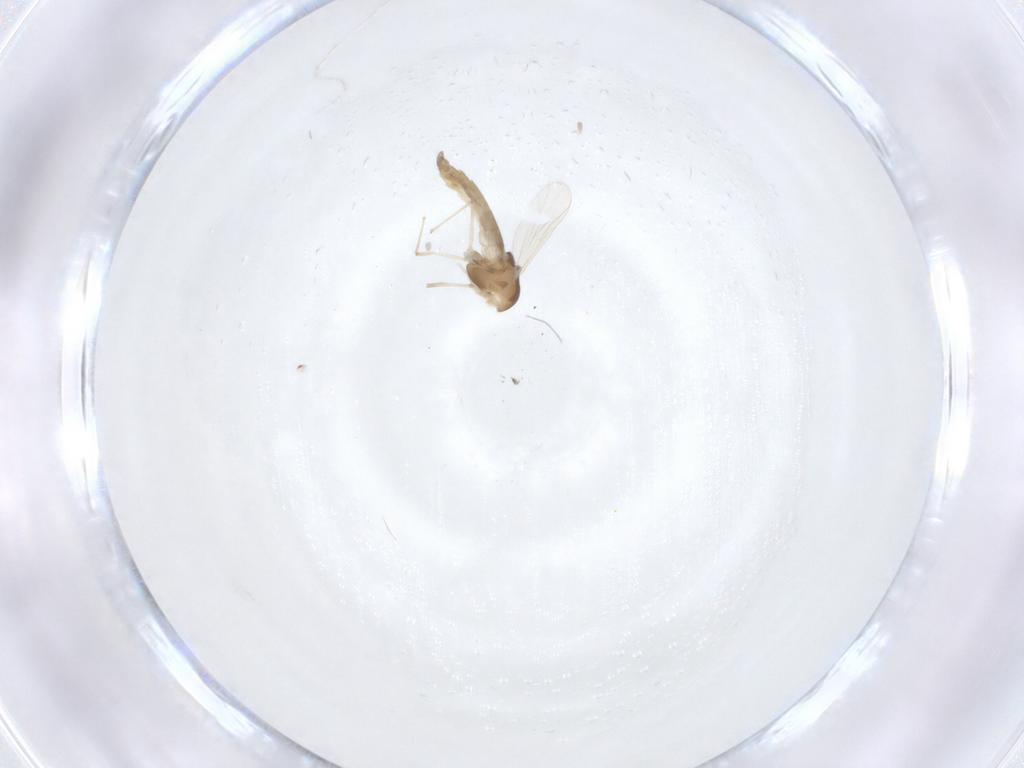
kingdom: Animalia
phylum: Arthropoda
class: Insecta
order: Diptera
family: Chironomidae
